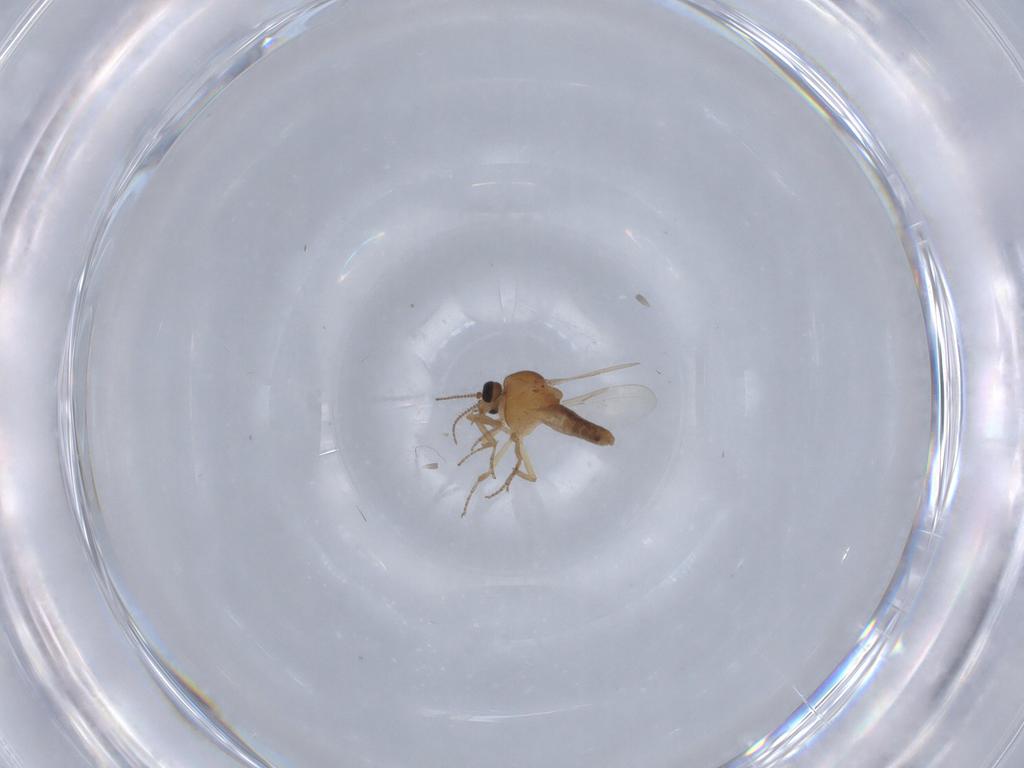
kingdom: Animalia
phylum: Arthropoda
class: Insecta
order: Diptera
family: Ceratopogonidae
